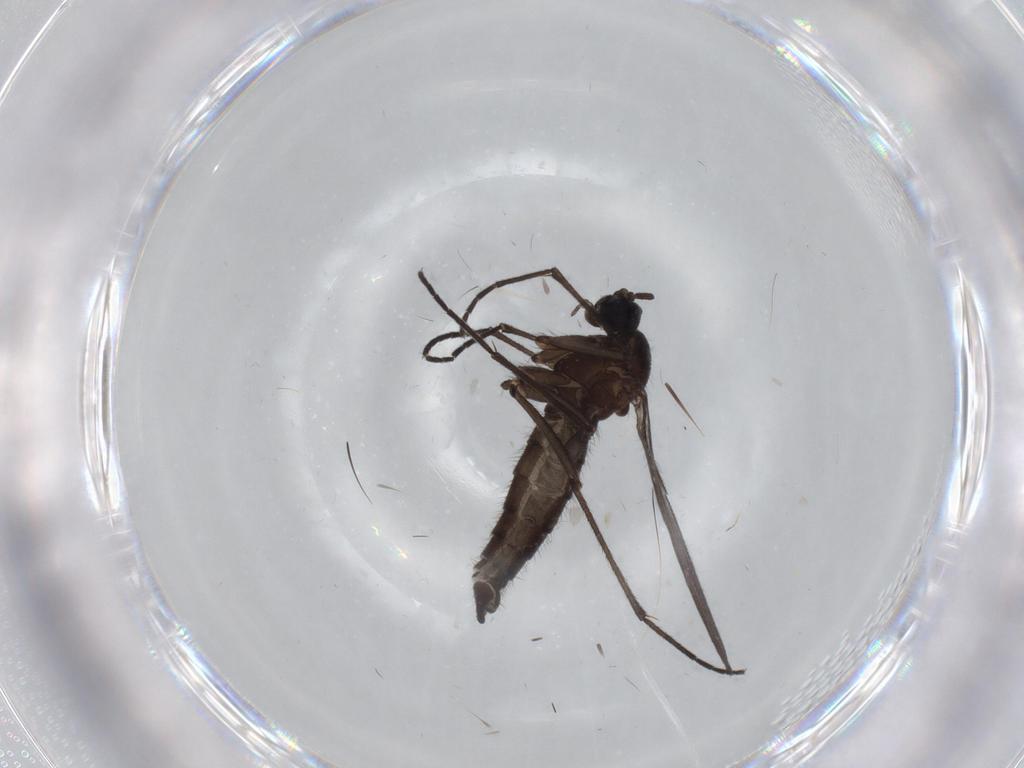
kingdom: Animalia
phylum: Arthropoda
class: Insecta
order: Diptera
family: Sciaridae
